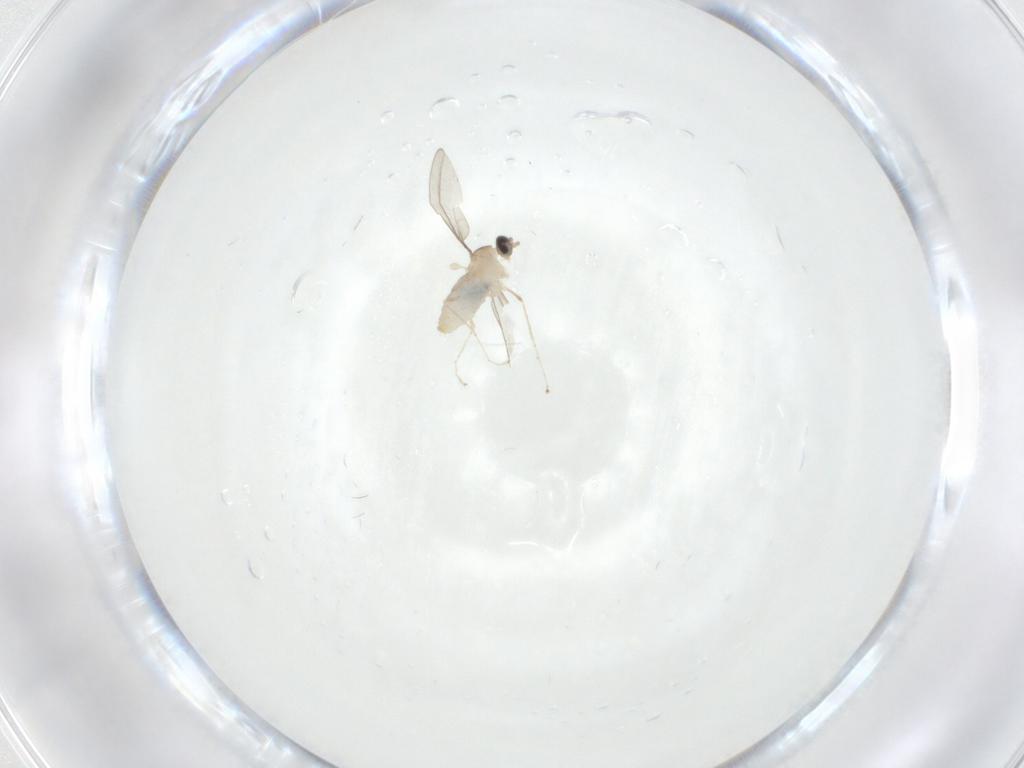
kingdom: Animalia
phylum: Arthropoda
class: Insecta
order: Diptera
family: Cecidomyiidae
